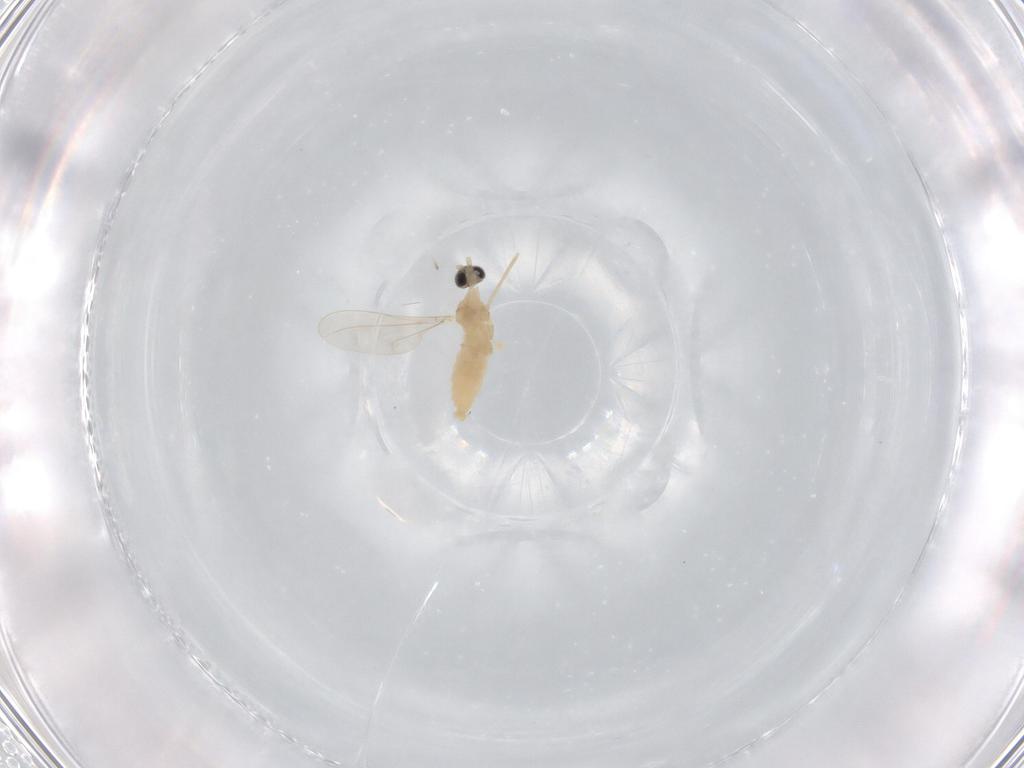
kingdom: Animalia
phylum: Arthropoda
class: Insecta
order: Diptera
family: Cecidomyiidae
